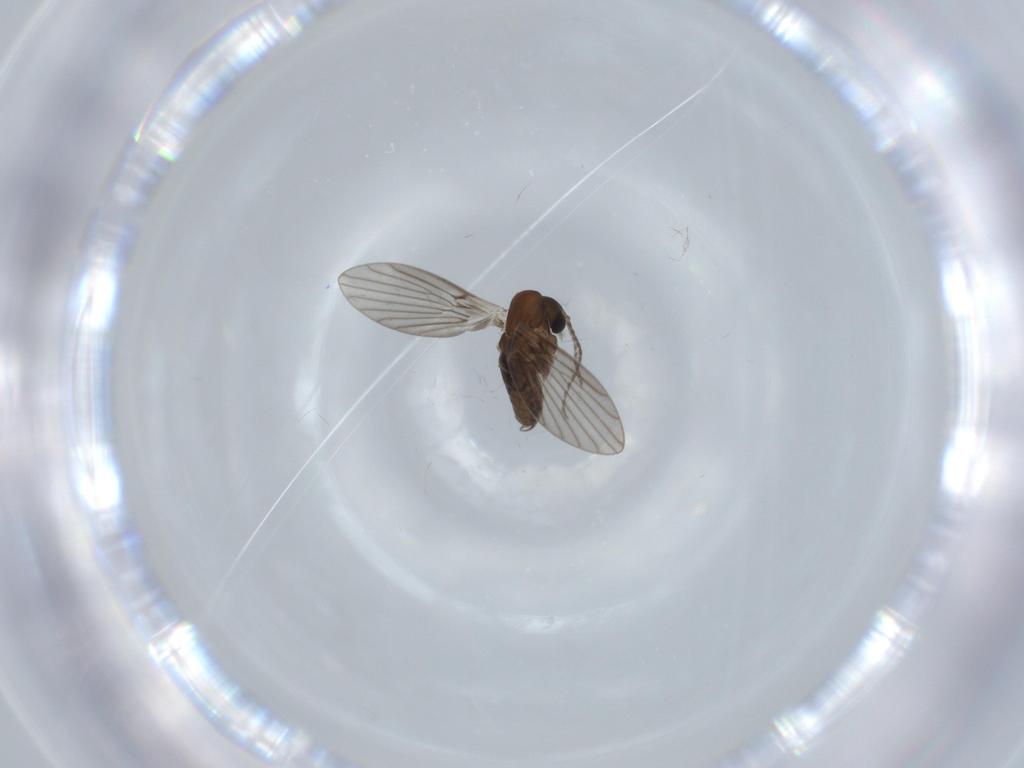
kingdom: Animalia
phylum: Arthropoda
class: Insecta
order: Diptera
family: Psychodidae
